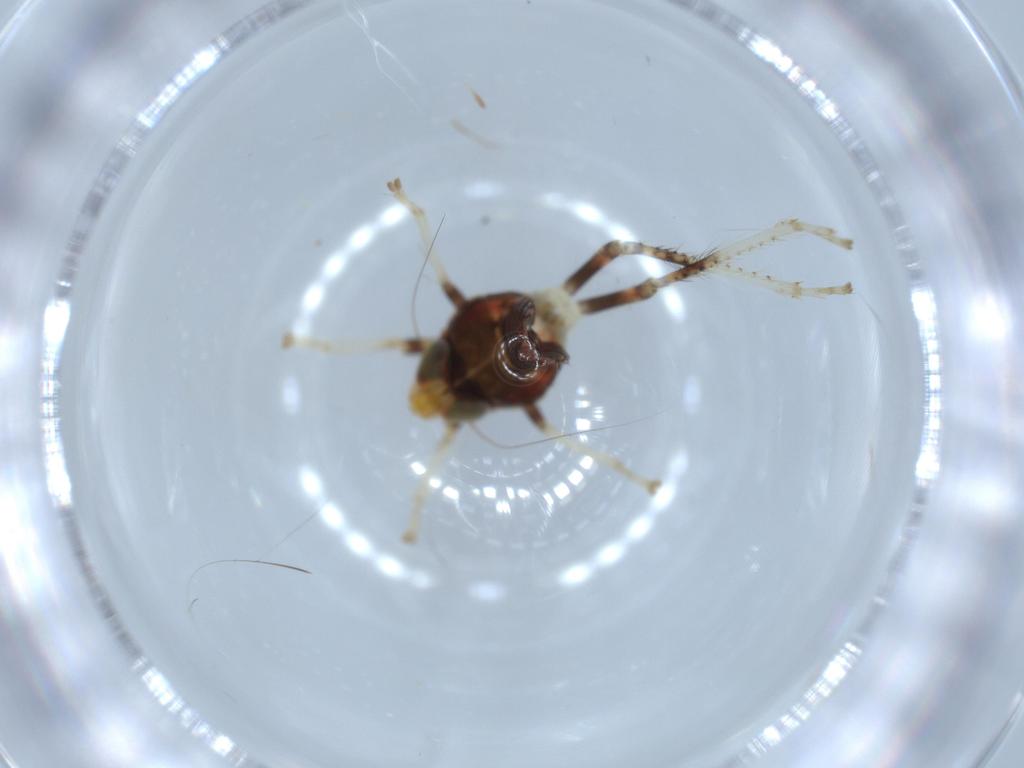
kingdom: Animalia
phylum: Arthropoda
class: Insecta
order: Hemiptera
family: Cicadellidae
